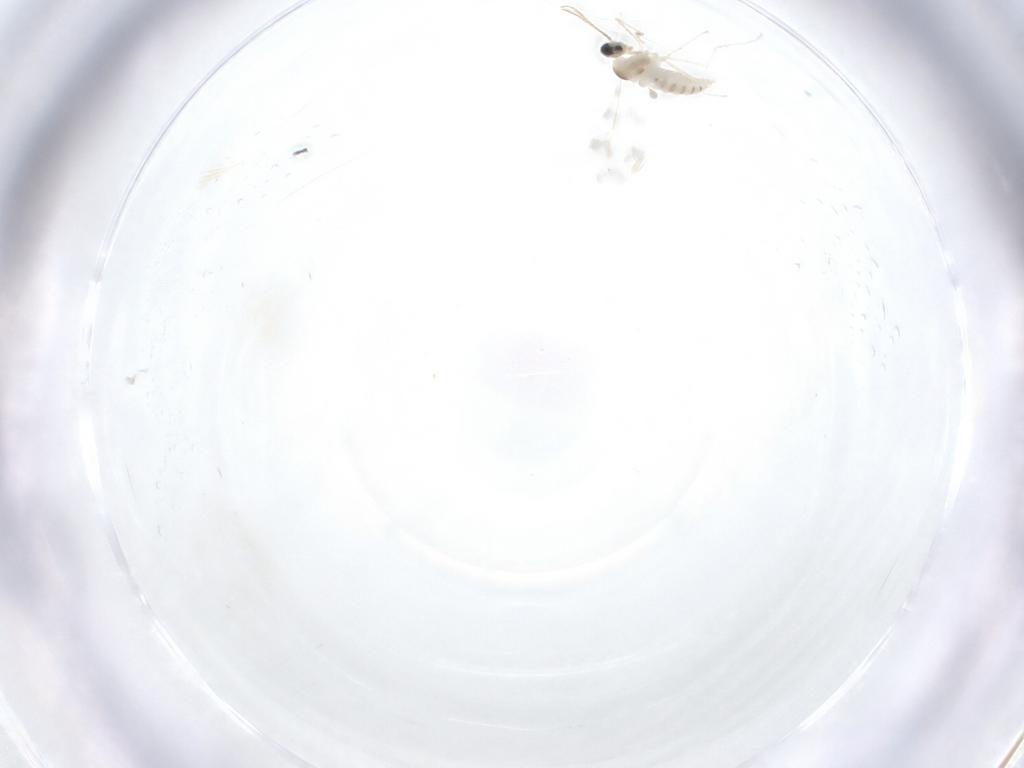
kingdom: Animalia
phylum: Arthropoda
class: Insecta
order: Diptera
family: Cecidomyiidae
